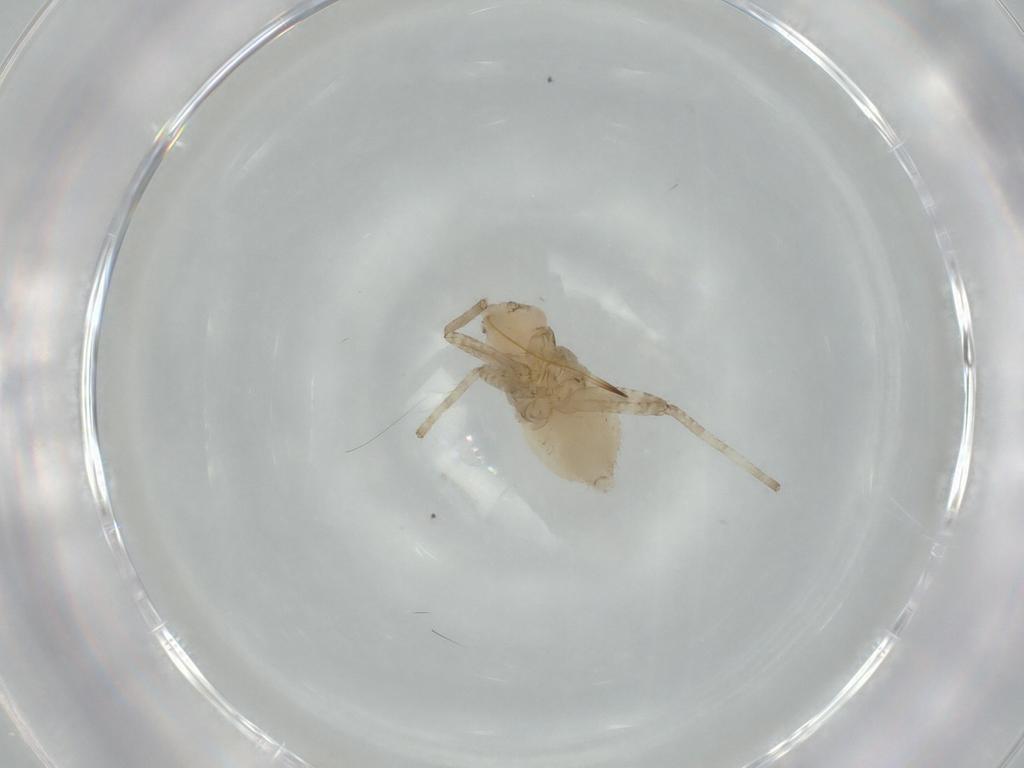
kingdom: Animalia
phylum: Arthropoda
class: Insecta
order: Hemiptera
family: Miridae
